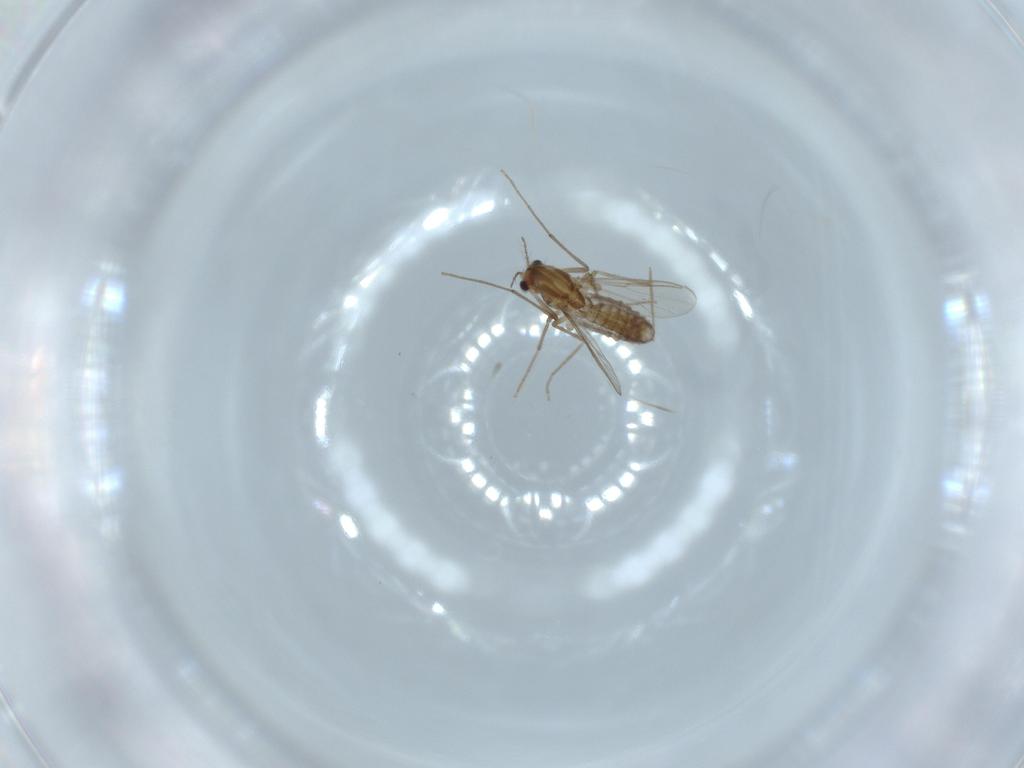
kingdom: Animalia
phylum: Arthropoda
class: Insecta
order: Diptera
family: Chironomidae
